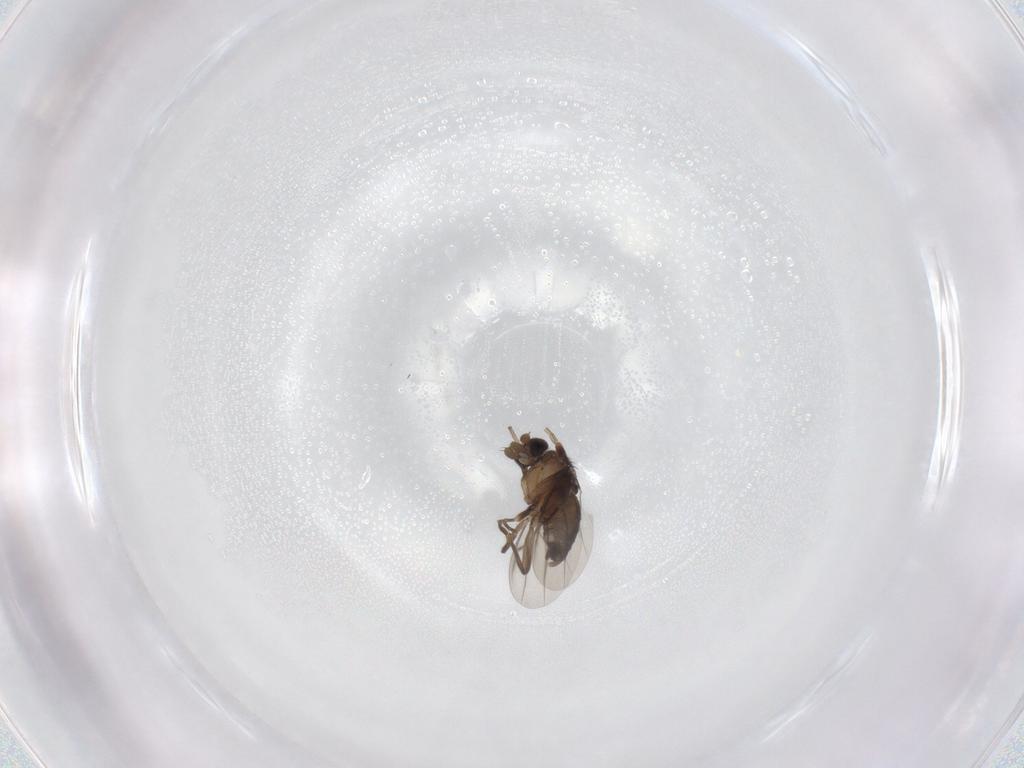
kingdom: Animalia
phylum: Arthropoda
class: Insecta
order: Diptera
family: Phoridae
